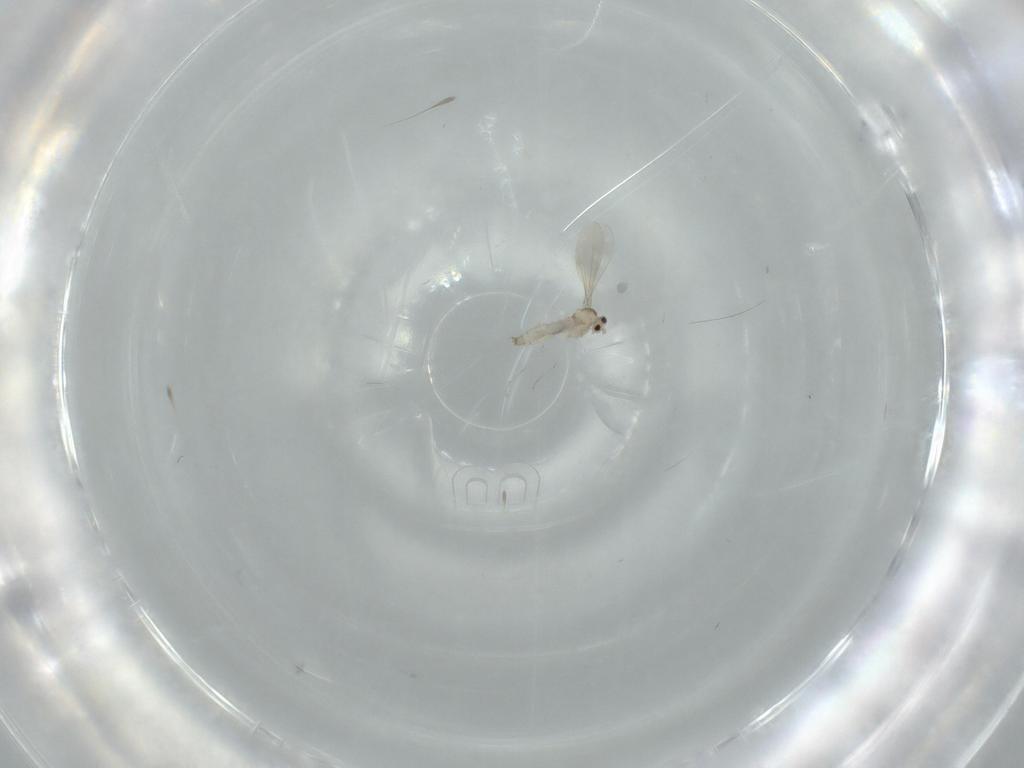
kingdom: Animalia
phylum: Arthropoda
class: Insecta
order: Diptera
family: Cecidomyiidae
